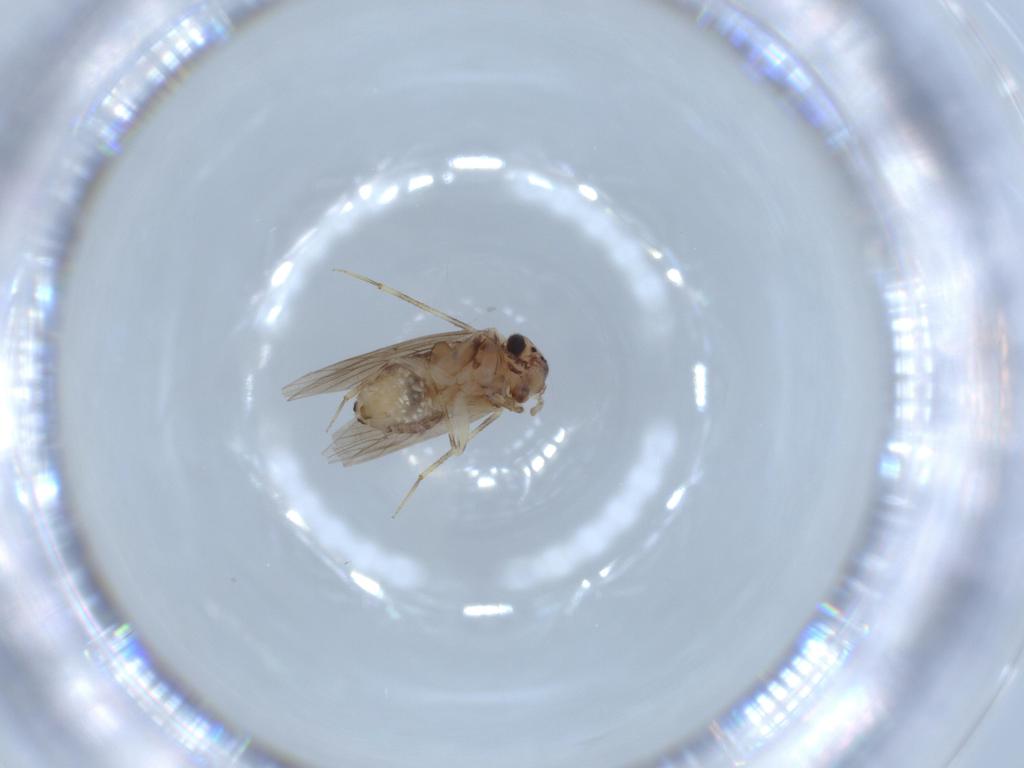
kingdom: Animalia
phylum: Arthropoda
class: Insecta
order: Psocodea
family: Lepidopsocidae
